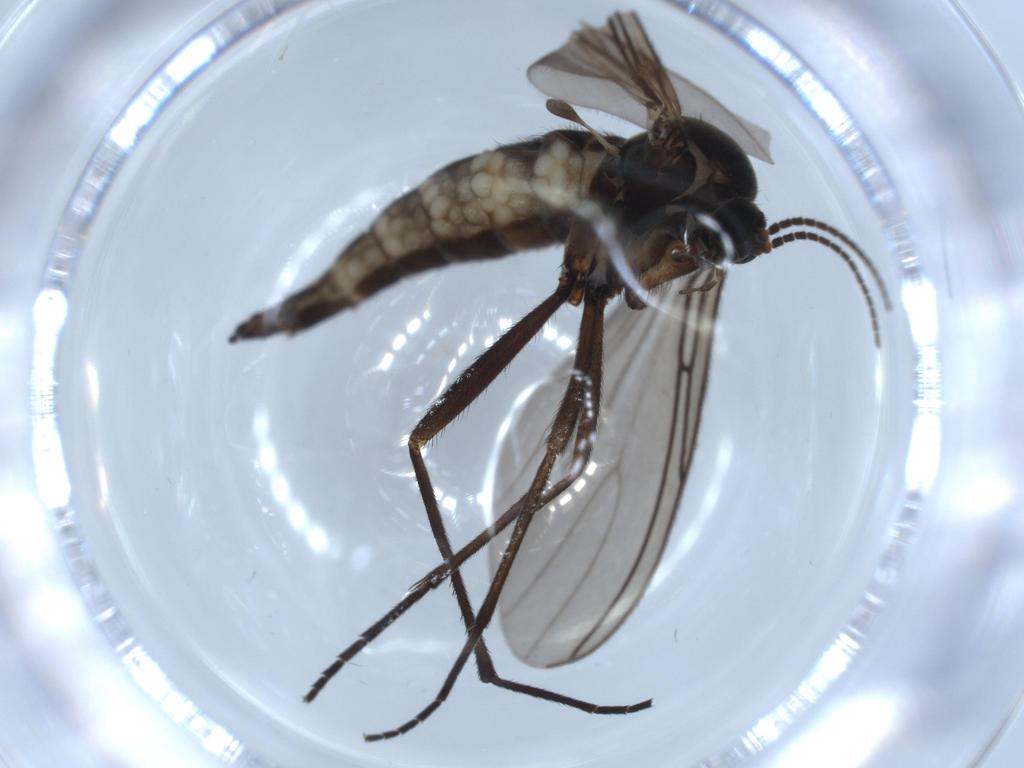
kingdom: Animalia
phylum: Arthropoda
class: Insecta
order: Diptera
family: Sciaridae
